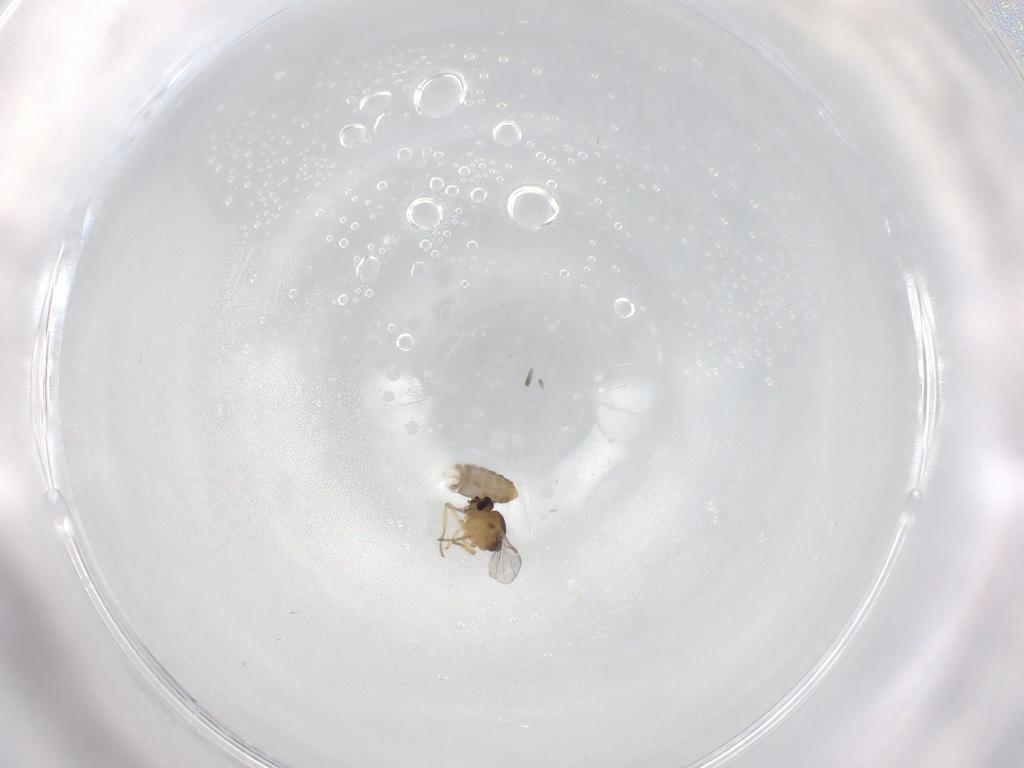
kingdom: Animalia
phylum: Arthropoda
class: Insecta
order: Diptera
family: Ceratopogonidae
